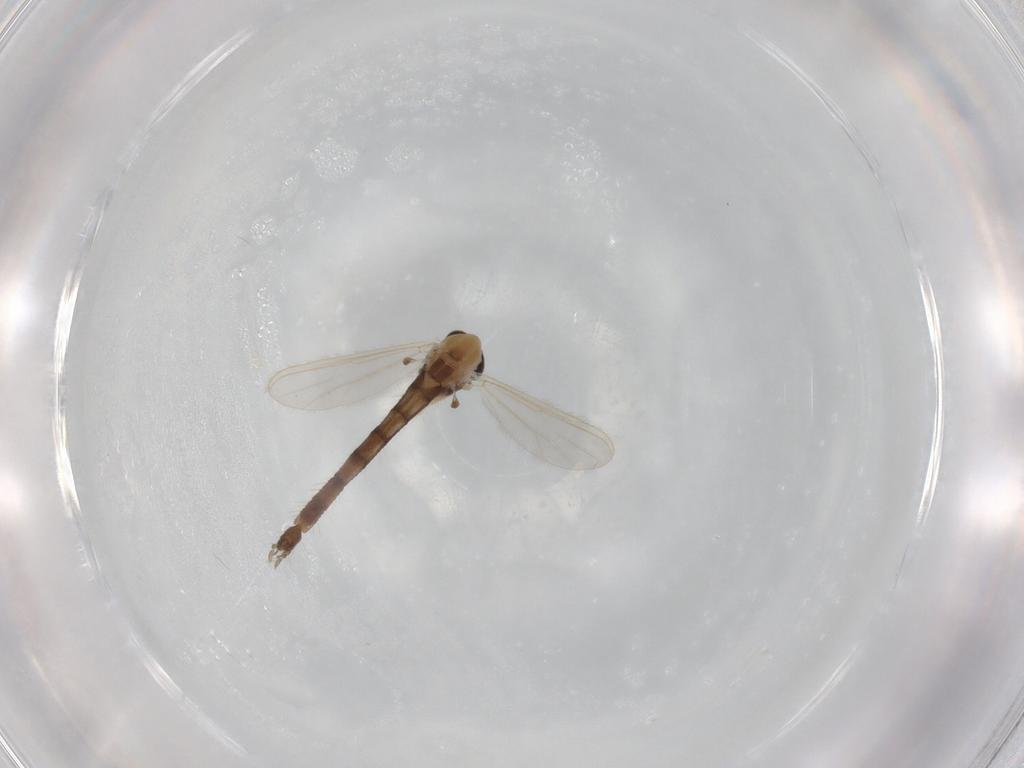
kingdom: Animalia
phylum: Arthropoda
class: Insecta
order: Diptera
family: Chironomidae
